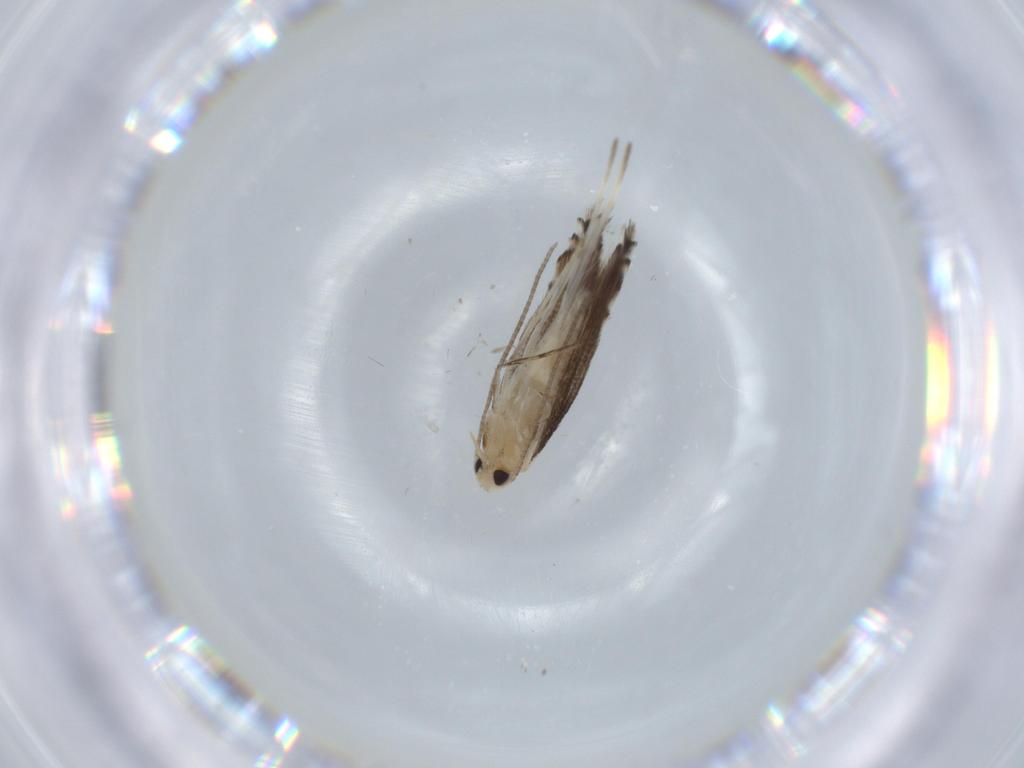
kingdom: Animalia
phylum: Arthropoda
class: Insecta
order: Lepidoptera
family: Gracillariidae
